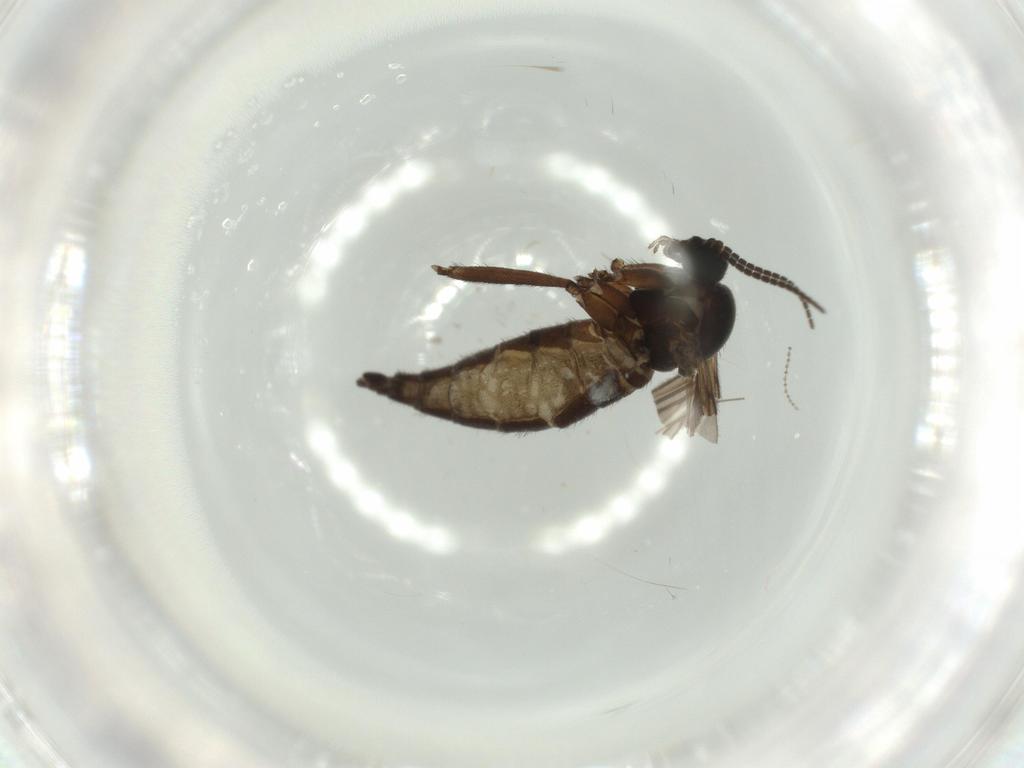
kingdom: Animalia
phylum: Arthropoda
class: Insecta
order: Diptera
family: Sciaridae
